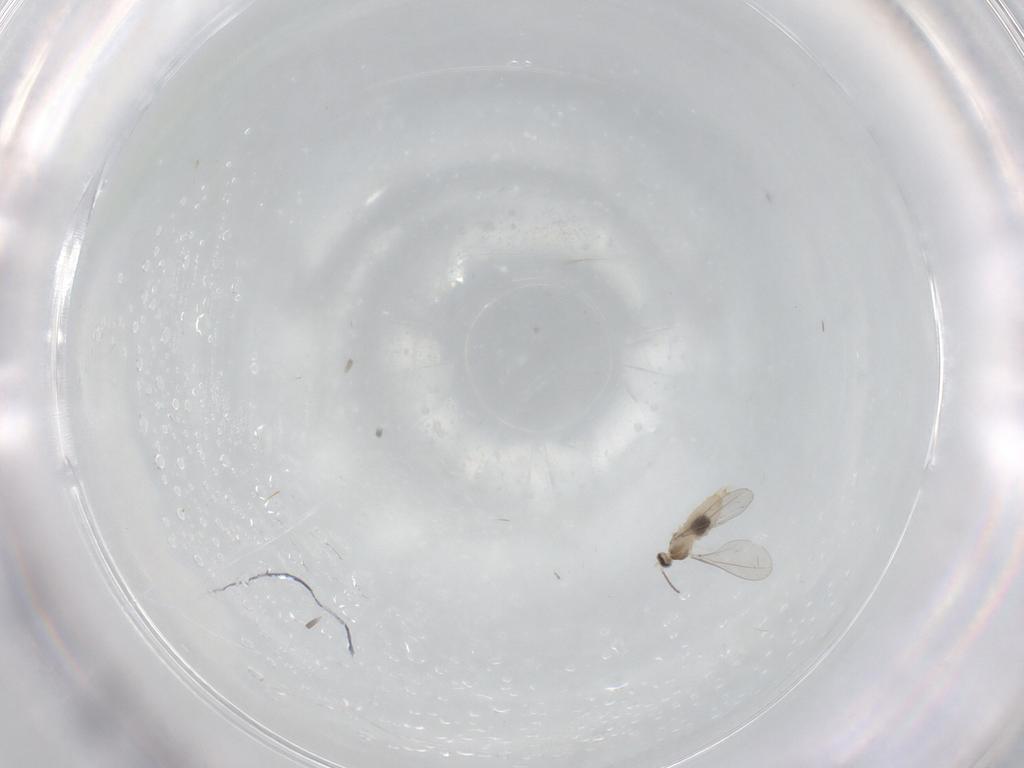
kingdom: Animalia
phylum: Arthropoda
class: Insecta
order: Diptera
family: Cecidomyiidae
